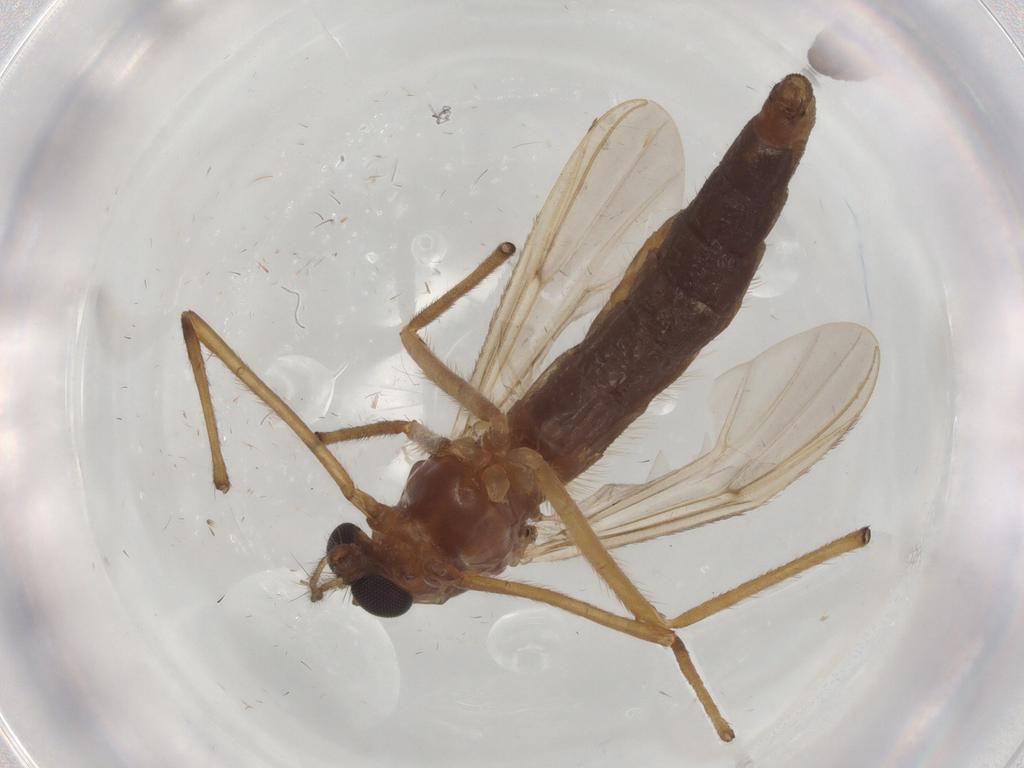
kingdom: Animalia
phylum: Arthropoda
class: Insecta
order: Diptera
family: Chironomidae
